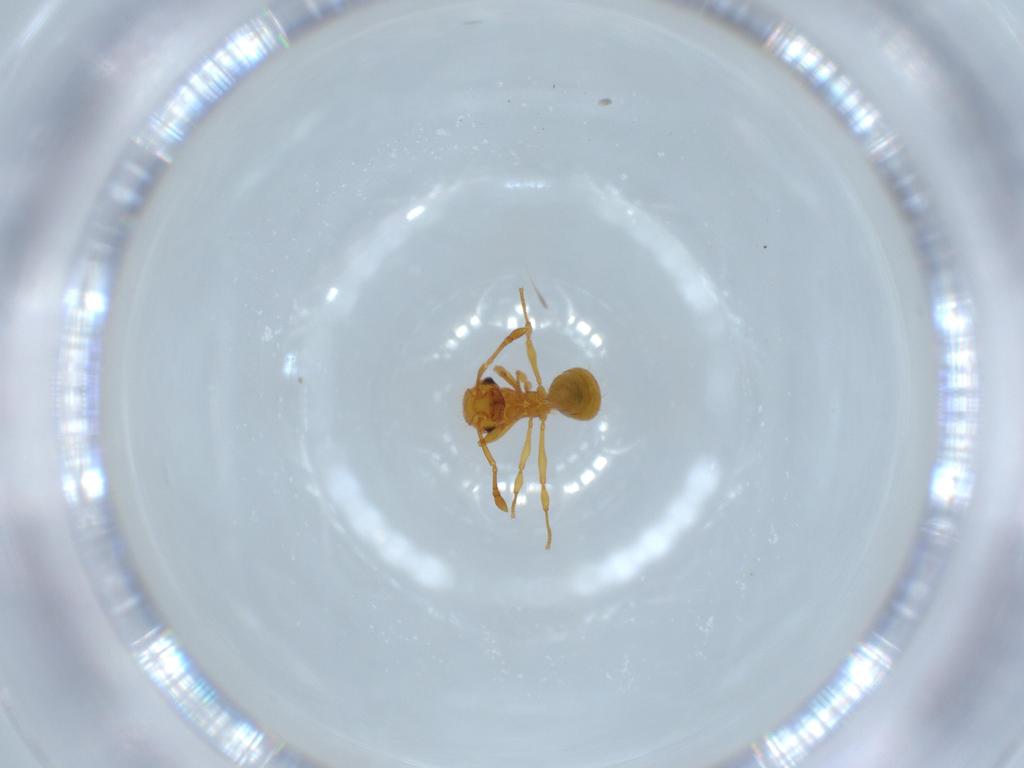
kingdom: Animalia
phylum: Arthropoda
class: Insecta
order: Hymenoptera
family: Formicidae
